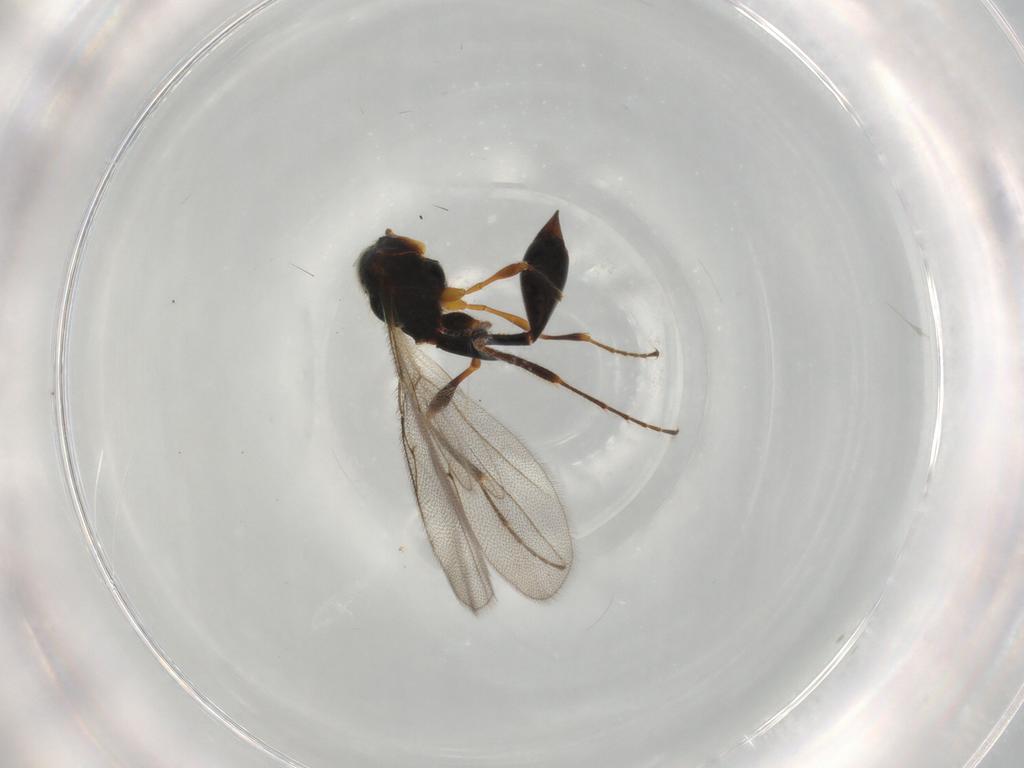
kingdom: Animalia
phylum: Arthropoda
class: Insecta
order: Hymenoptera
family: Diapriidae
